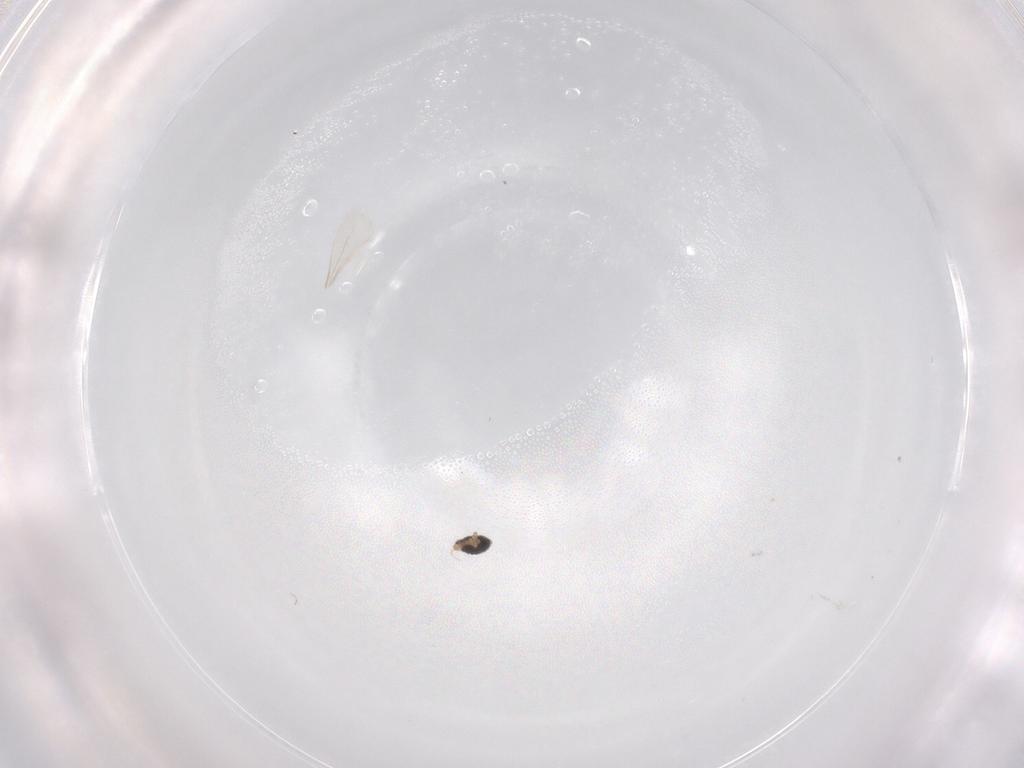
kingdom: Animalia
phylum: Arthropoda
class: Insecta
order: Diptera
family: Cecidomyiidae
